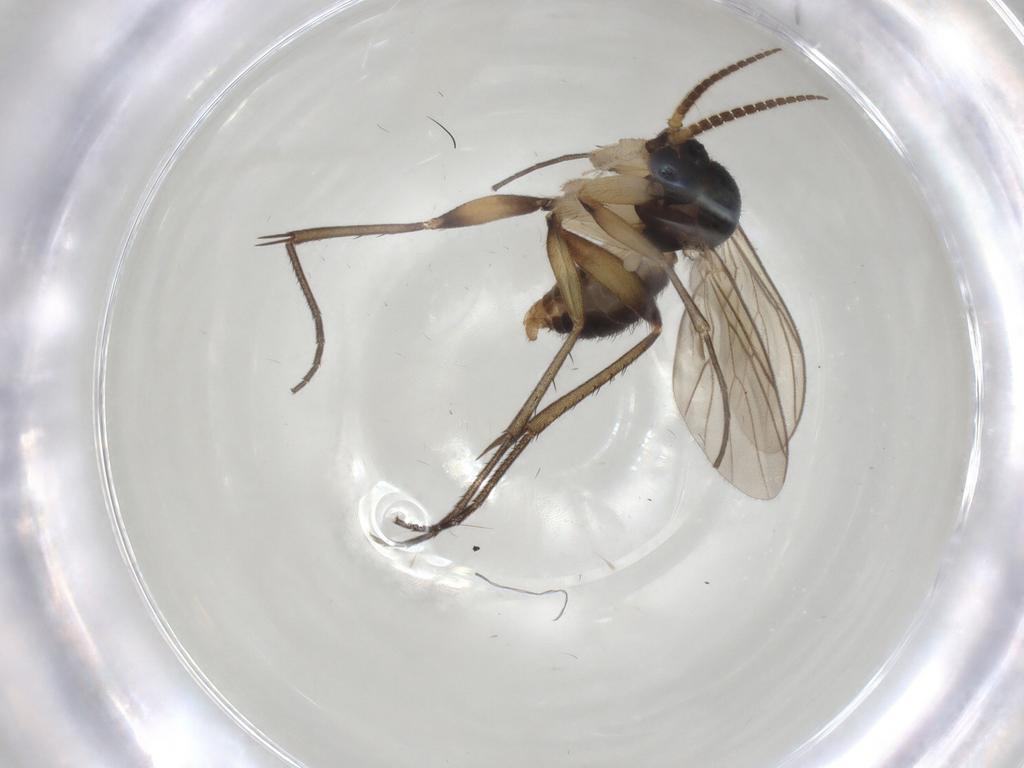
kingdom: Animalia
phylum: Arthropoda
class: Insecta
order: Diptera
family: Mycetophilidae
